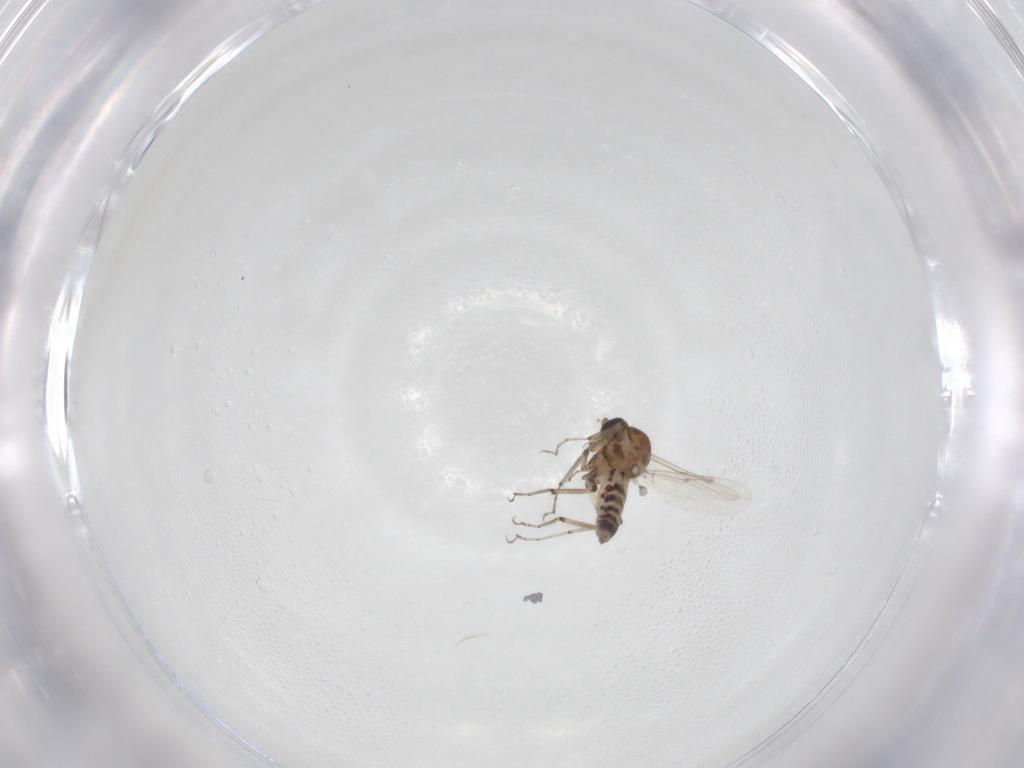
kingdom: Animalia
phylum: Arthropoda
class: Insecta
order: Diptera
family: Ceratopogonidae
